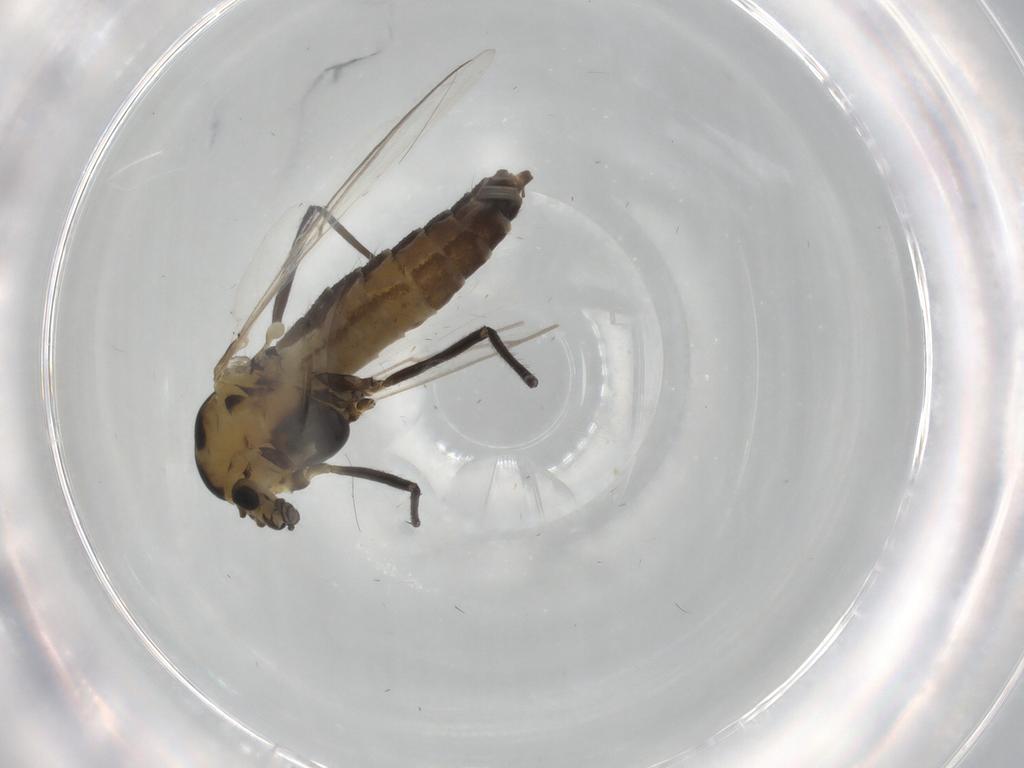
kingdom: Animalia
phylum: Arthropoda
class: Insecta
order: Diptera
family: Chironomidae
